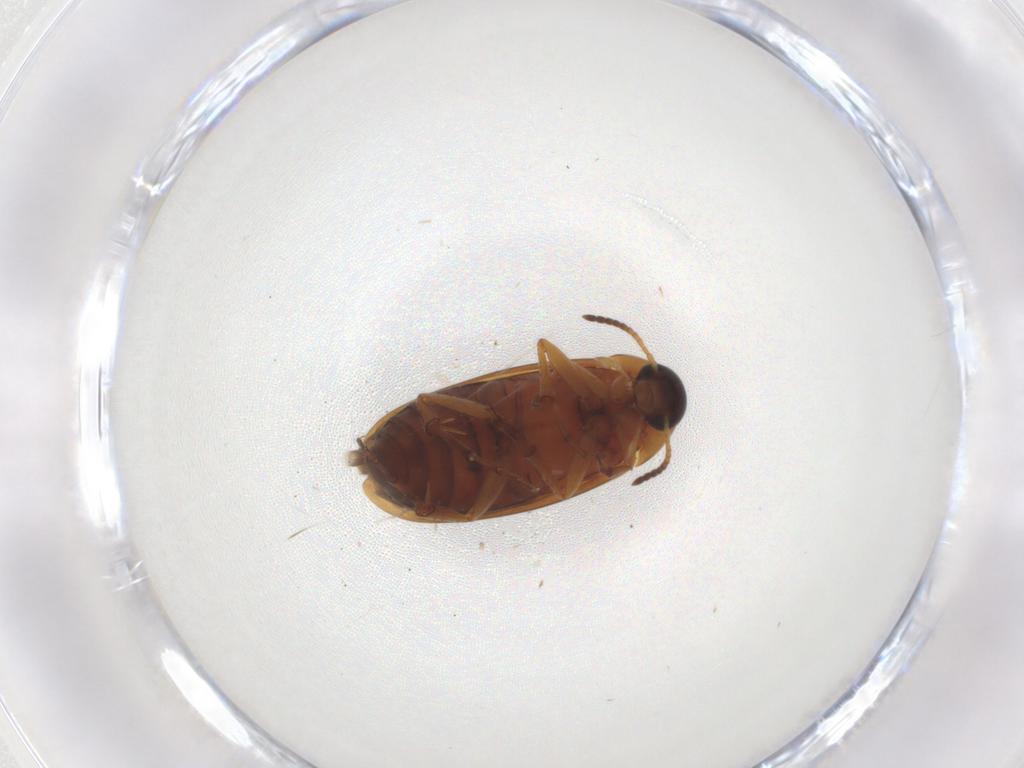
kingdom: Animalia
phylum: Arthropoda
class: Insecta
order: Coleoptera
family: Scraptiidae
